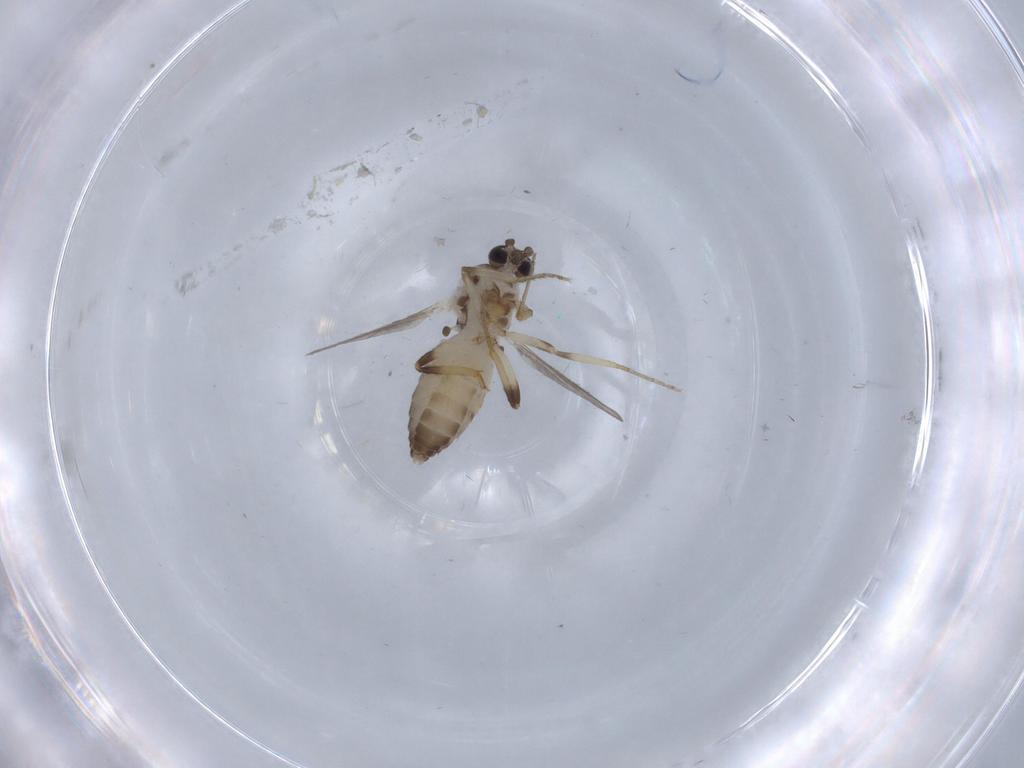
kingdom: Animalia
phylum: Arthropoda
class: Insecta
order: Diptera
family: Ceratopogonidae
